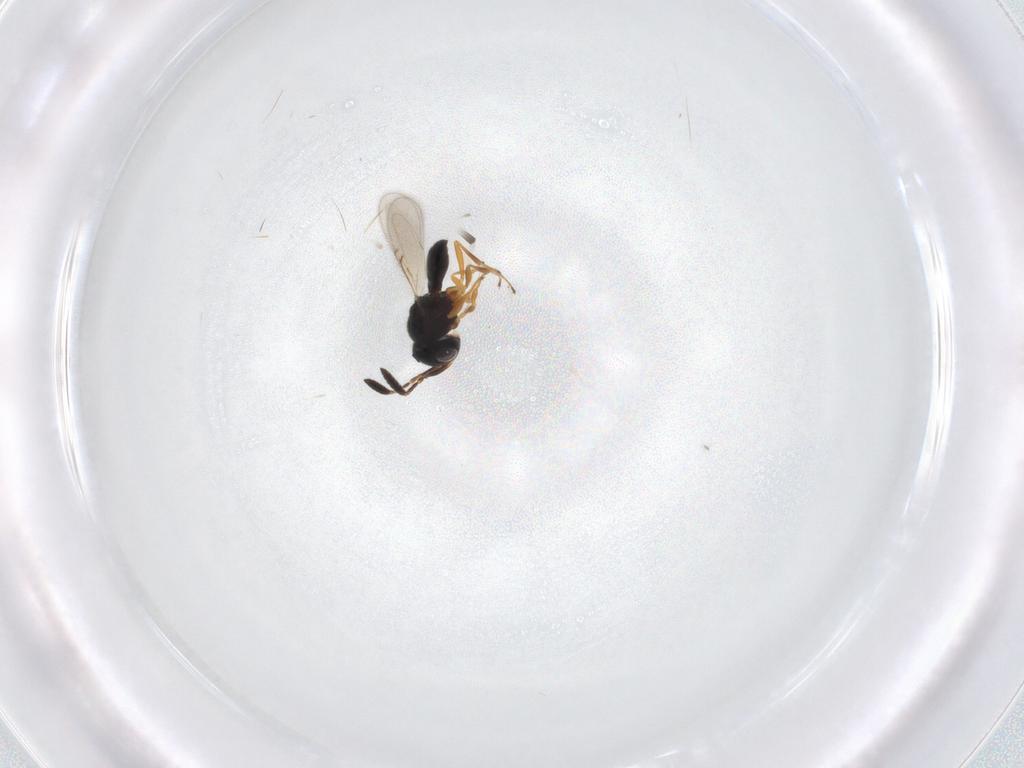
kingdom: Animalia
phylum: Arthropoda
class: Insecta
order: Hymenoptera
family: Scelionidae
